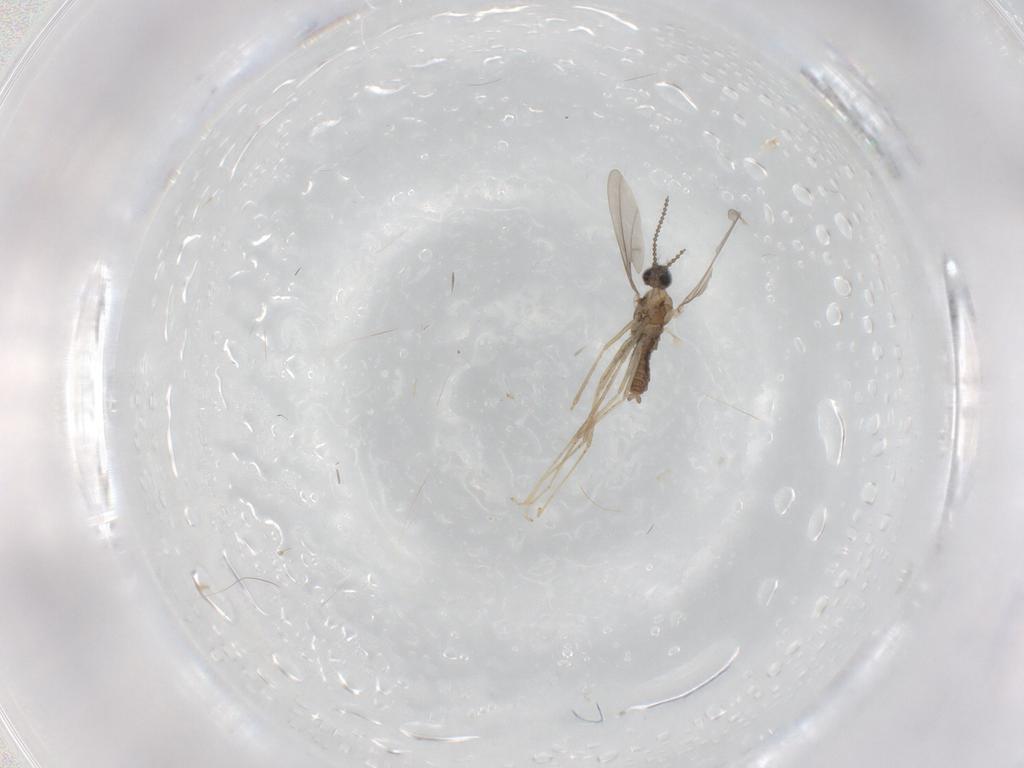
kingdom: Animalia
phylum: Arthropoda
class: Insecta
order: Diptera
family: Cecidomyiidae
